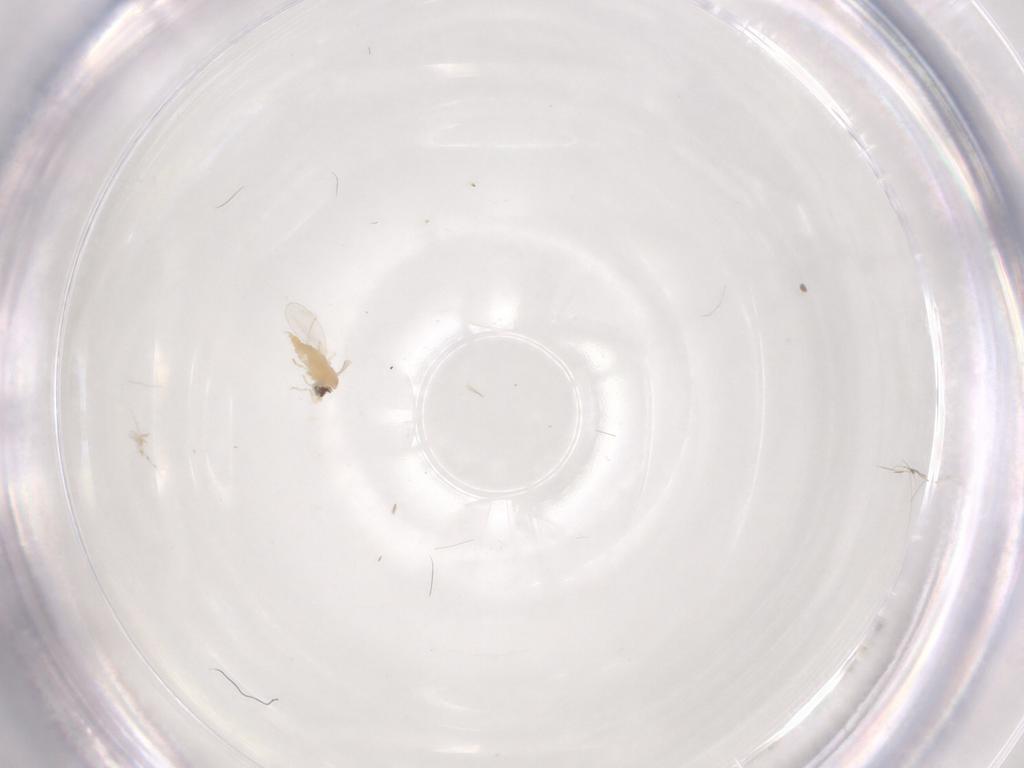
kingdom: Animalia
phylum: Arthropoda
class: Insecta
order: Diptera
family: Cecidomyiidae
